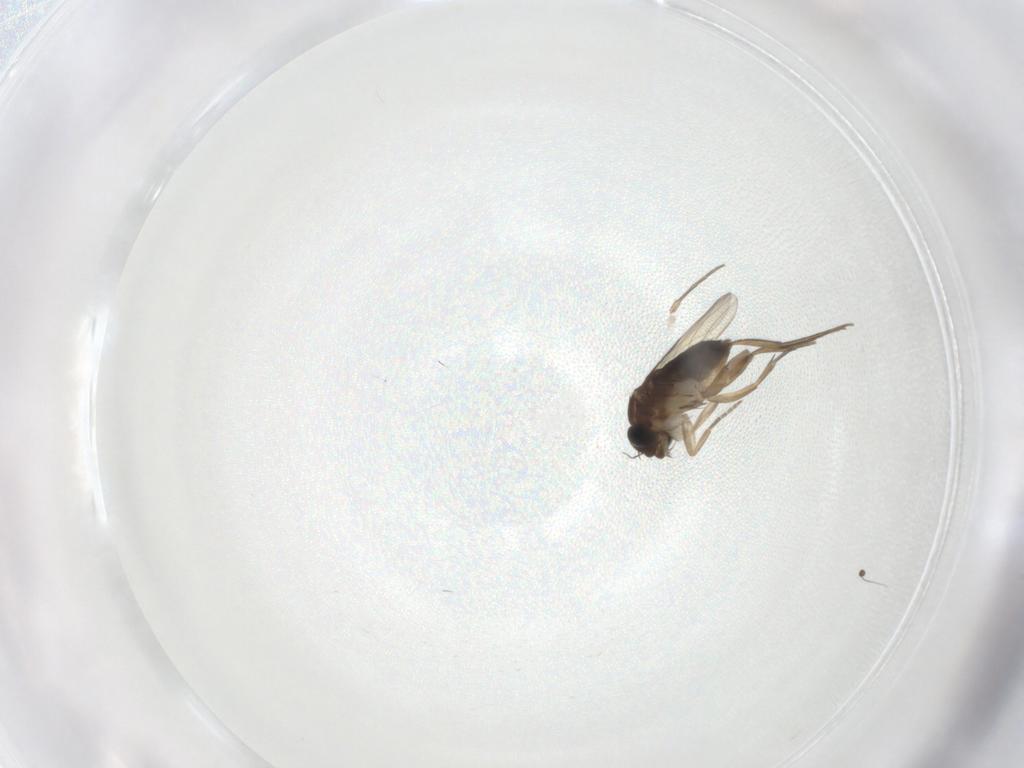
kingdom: Animalia
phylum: Arthropoda
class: Insecta
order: Diptera
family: Phoridae
